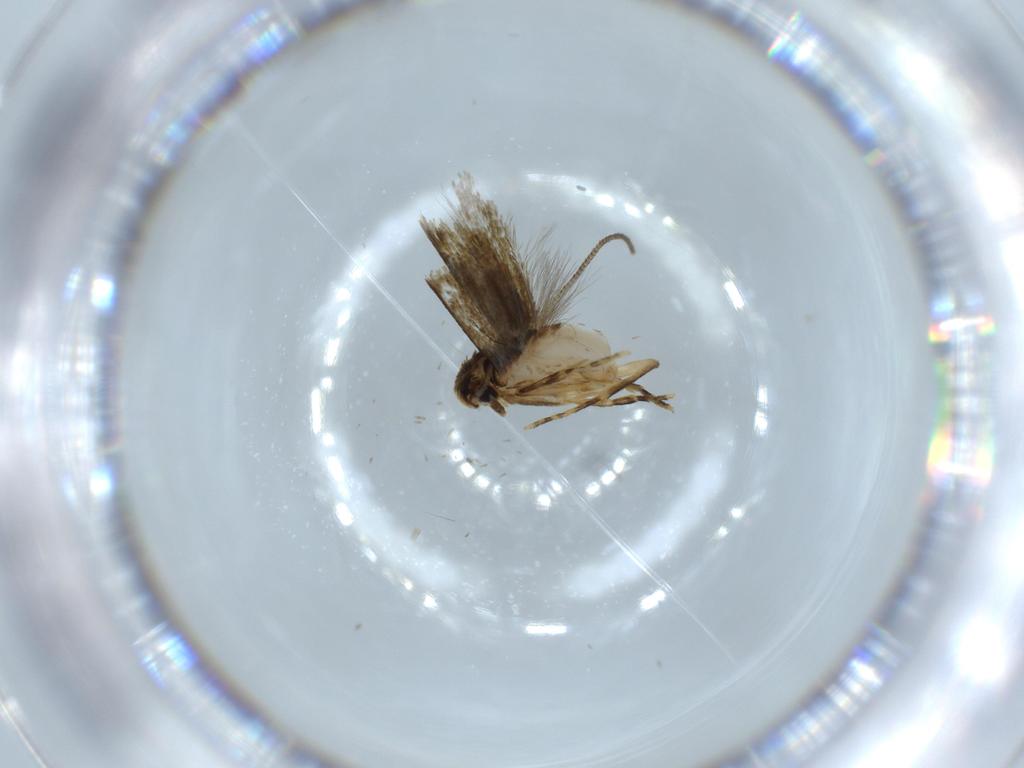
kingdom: Animalia
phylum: Arthropoda
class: Insecta
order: Lepidoptera
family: Tineidae
